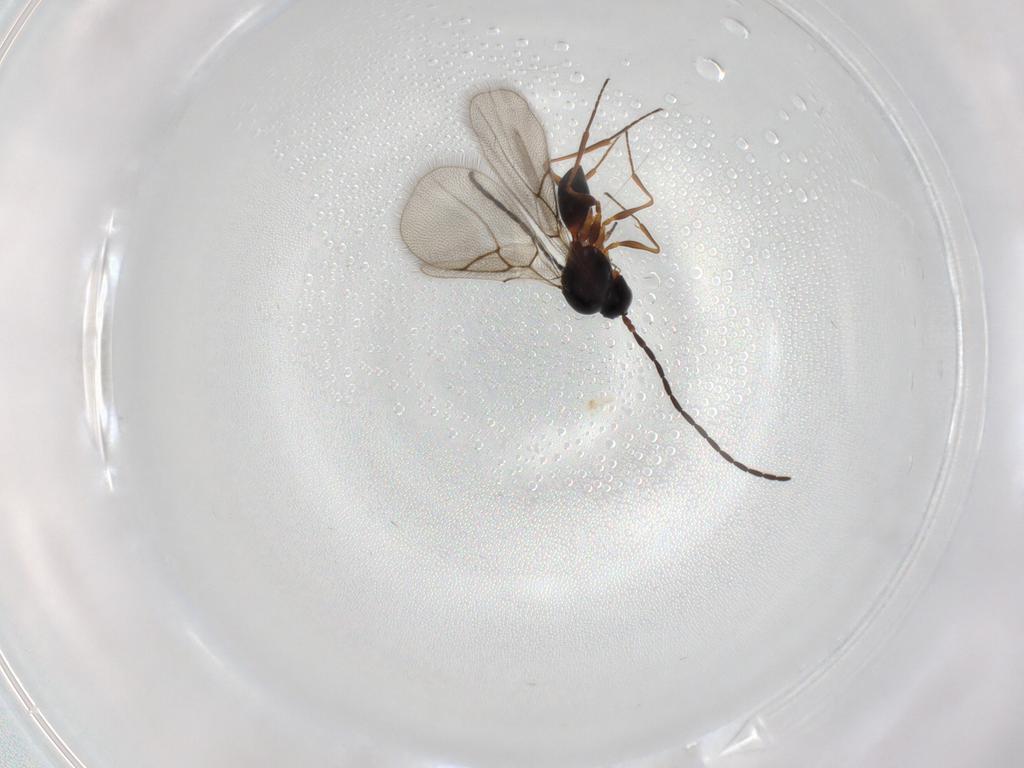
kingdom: Animalia
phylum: Arthropoda
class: Insecta
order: Hymenoptera
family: Figitidae
